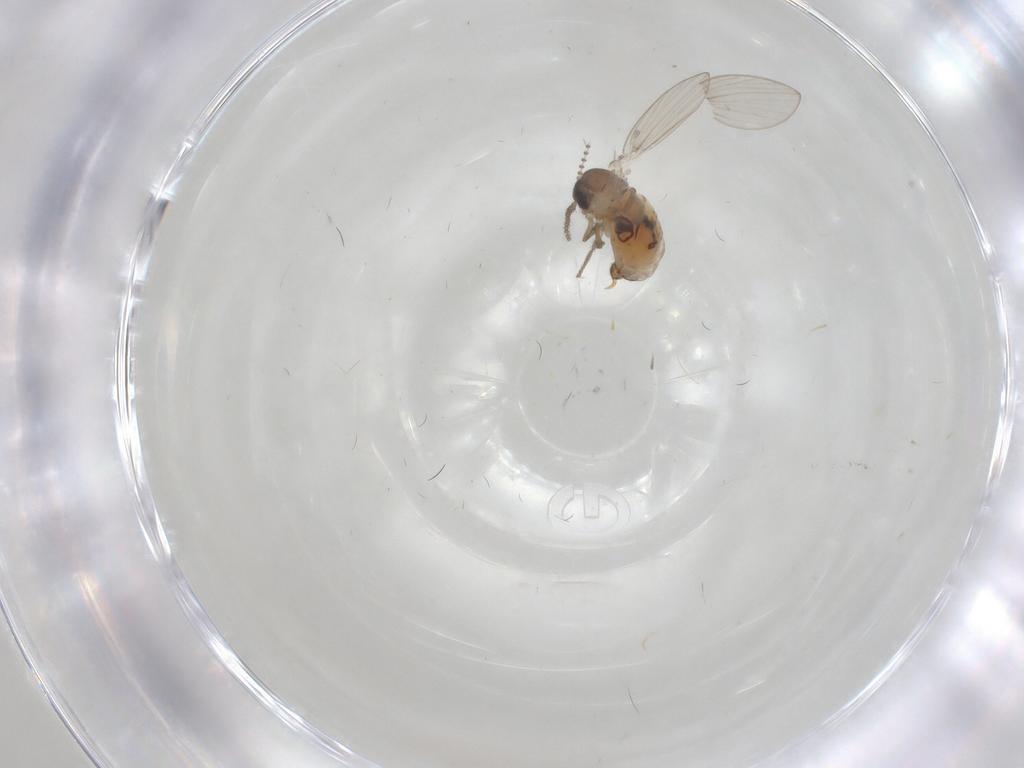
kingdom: Animalia
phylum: Arthropoda
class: Insecta
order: Diptera
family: Psychodidae
